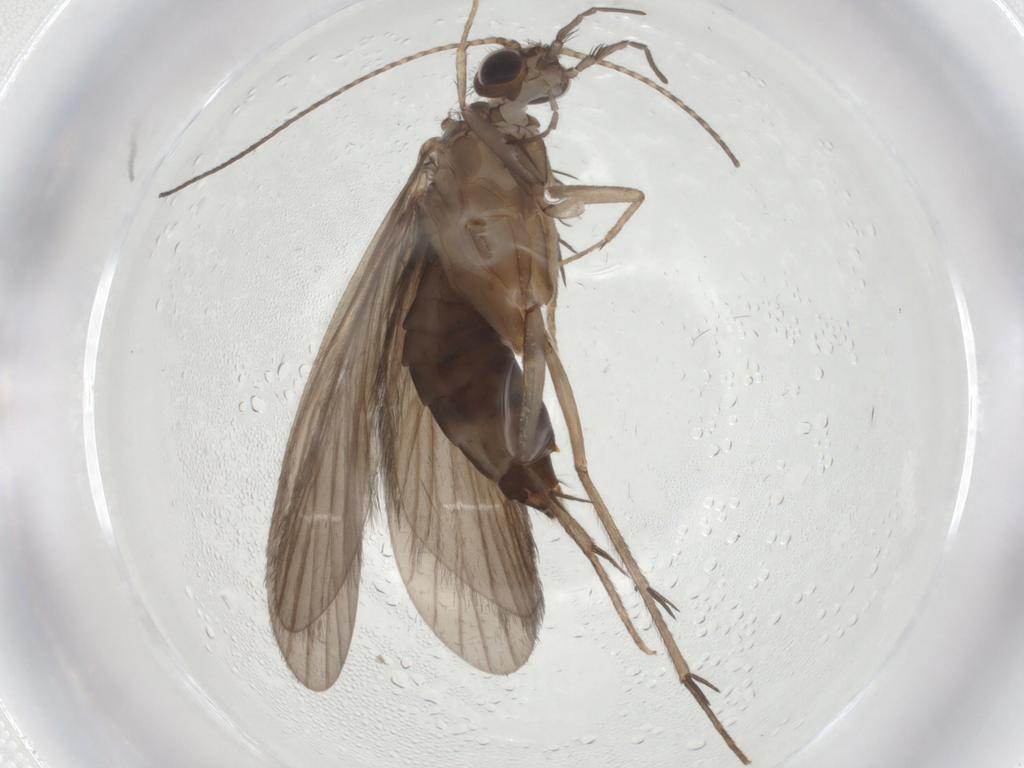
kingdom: Animalia
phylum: Arthropoda
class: Insecta
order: Trichoptera
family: Philopotamidae
